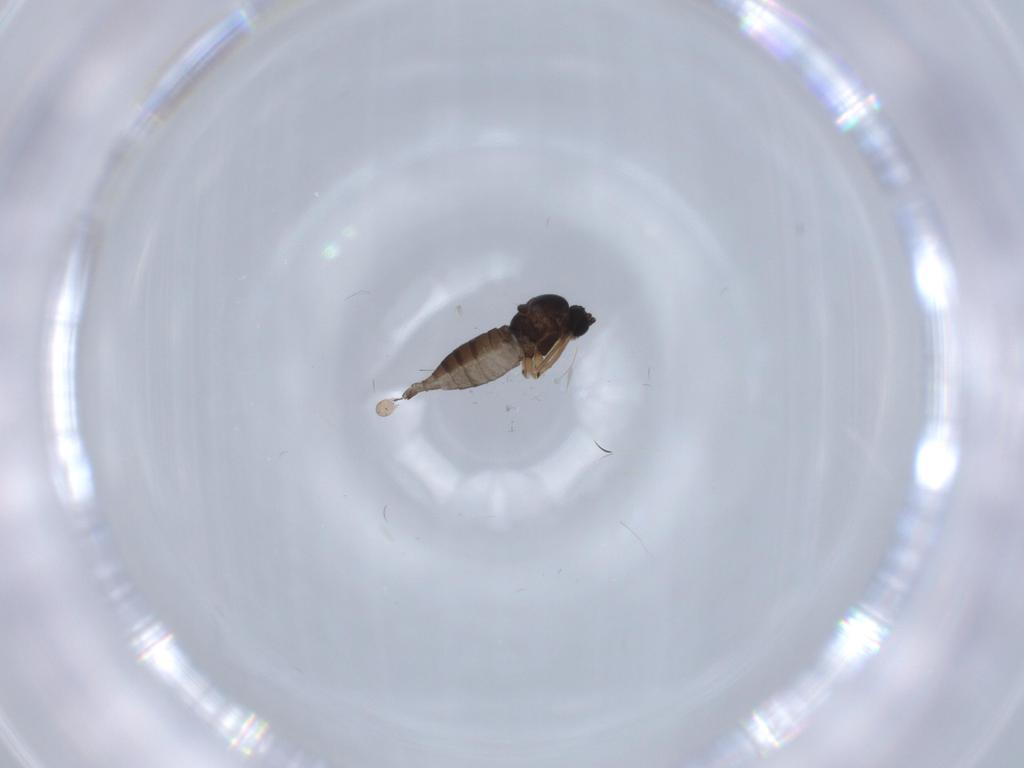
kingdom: Animalia
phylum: Arthropoda
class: Insecta
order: Diptera
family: Sciaridae
